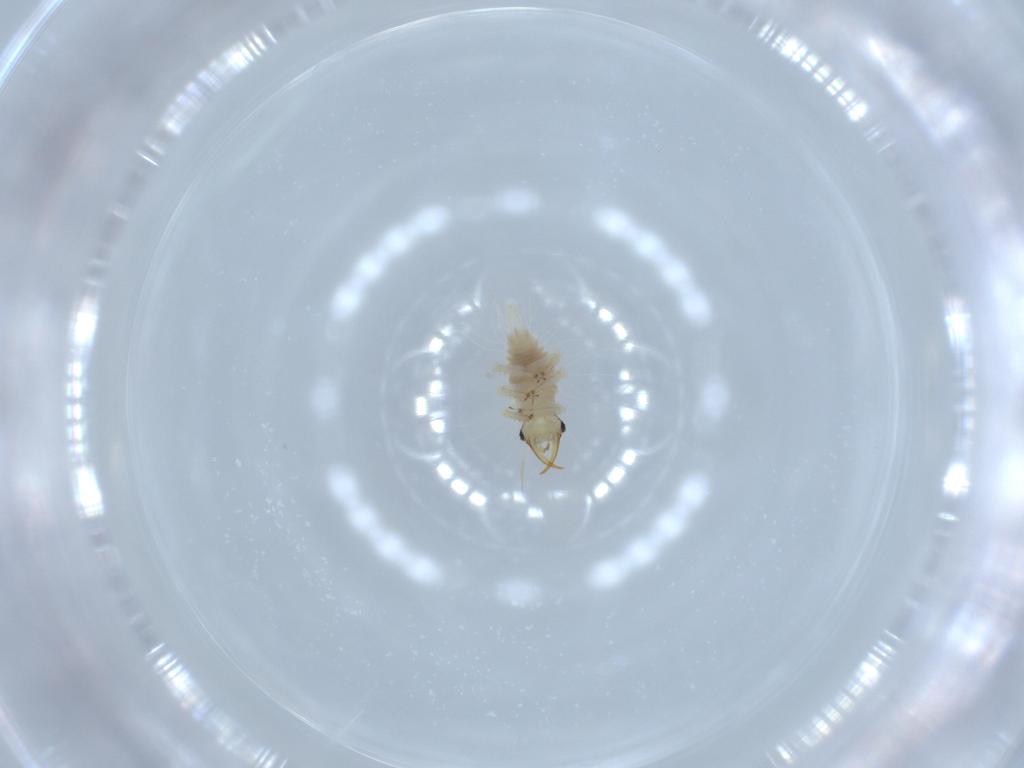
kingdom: Animalia
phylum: Arthropoda
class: Insecta
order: Neuroptera
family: Chrysopidae
